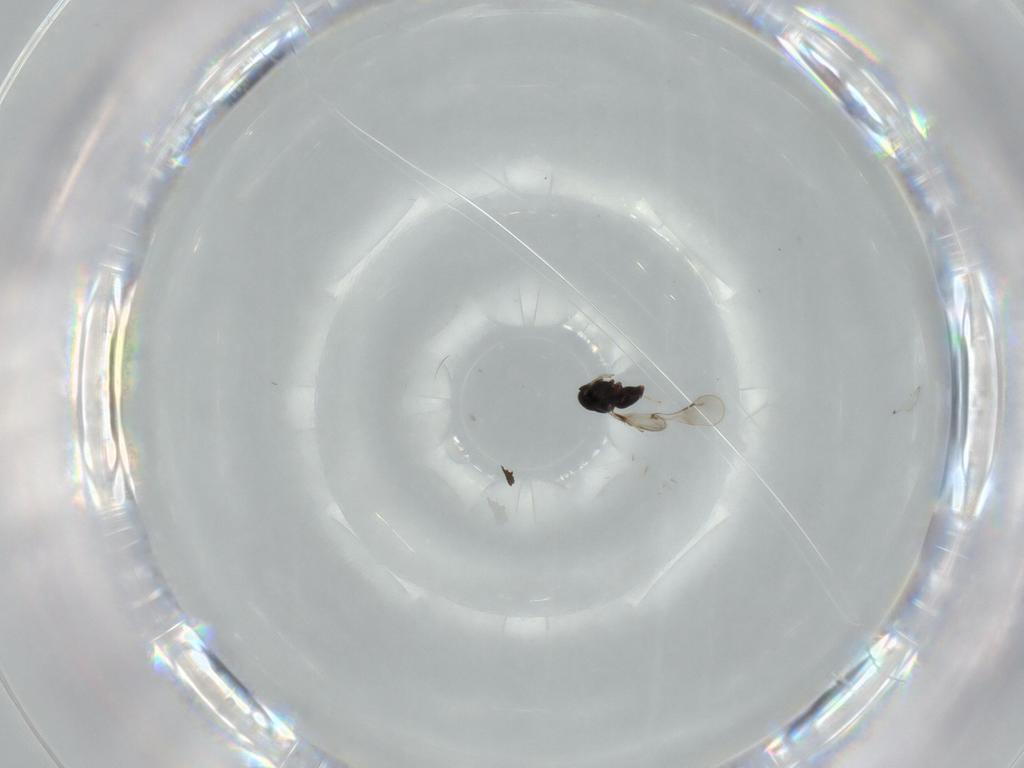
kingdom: Animalia
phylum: Arthropoda
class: Insecta
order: Hymenoptera
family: Scelionidae
